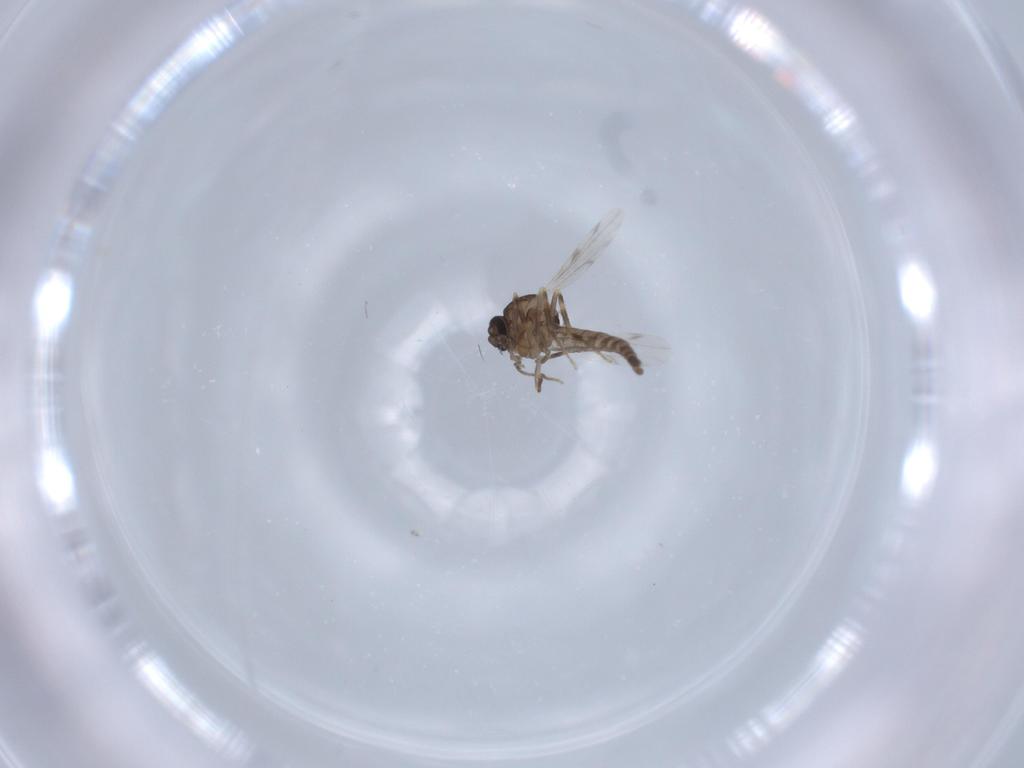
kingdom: Animalia
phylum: Arthropoda
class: Insecta
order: Diptera
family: Ceratopogonidae
